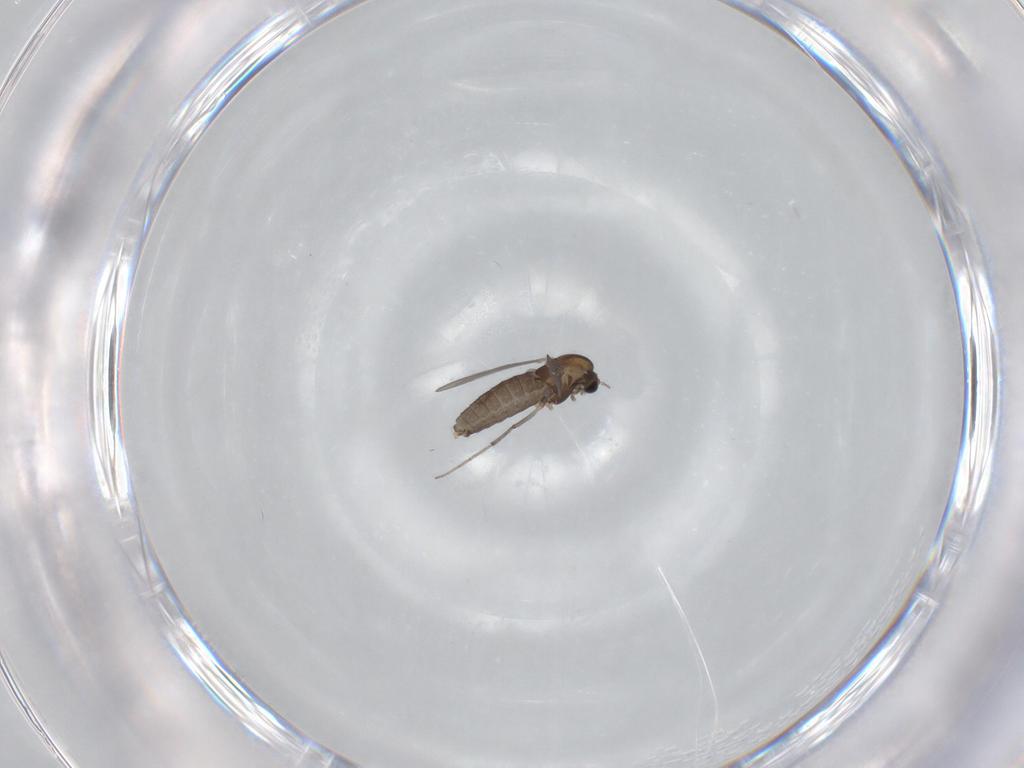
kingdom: Animalia
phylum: Arthropoda
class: Insecta
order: Diptera
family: Chironomidae
